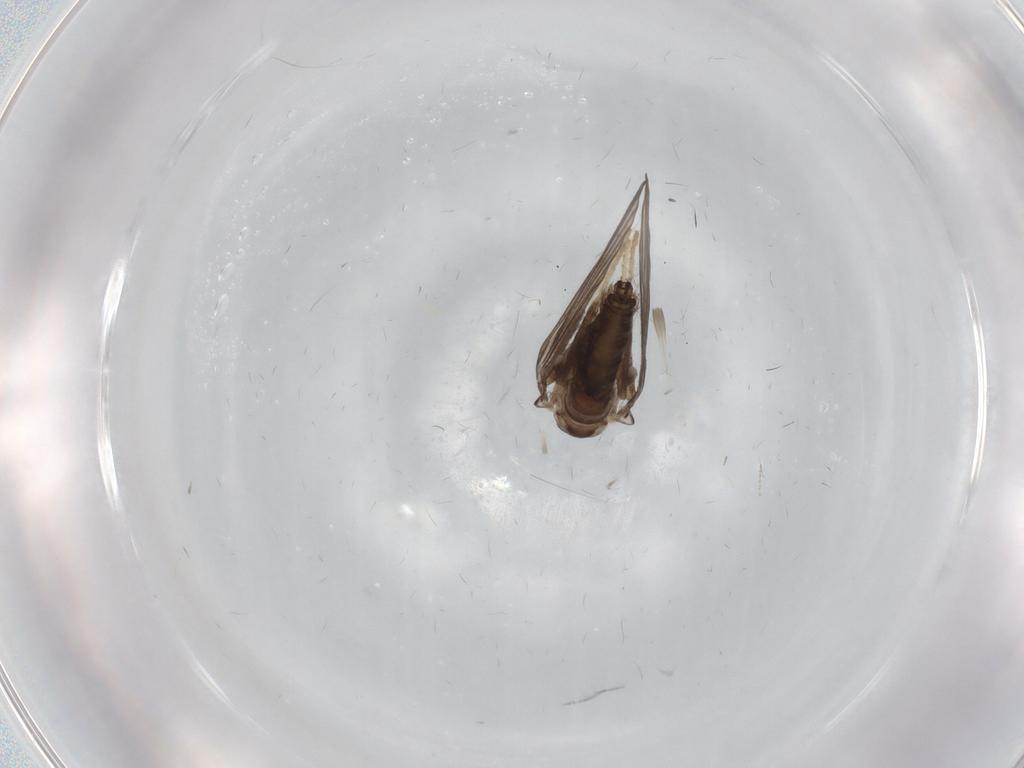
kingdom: Animalia
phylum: Arthropoda
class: Insecta
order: Diptera
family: Psychodidae
